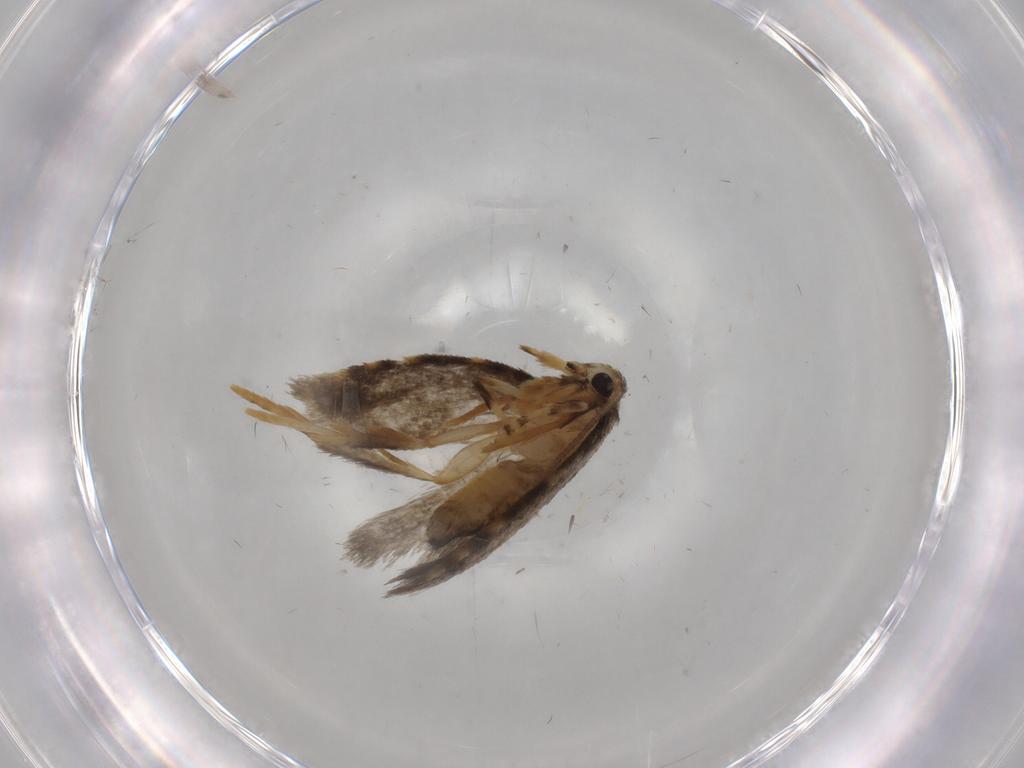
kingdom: Animalia
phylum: Arthropoda
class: Insecta
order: Lepidoptera
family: Psychidae
